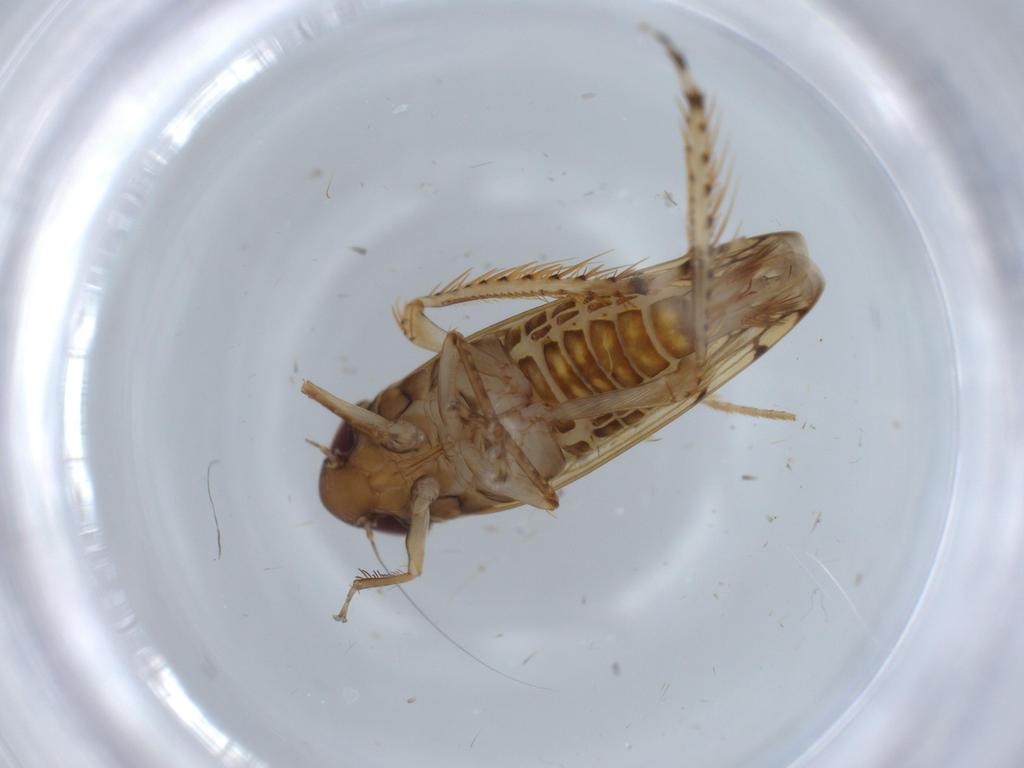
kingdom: Animalia
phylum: Arthropoda
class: Insecta
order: Hemiptera
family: Cicadellidae
